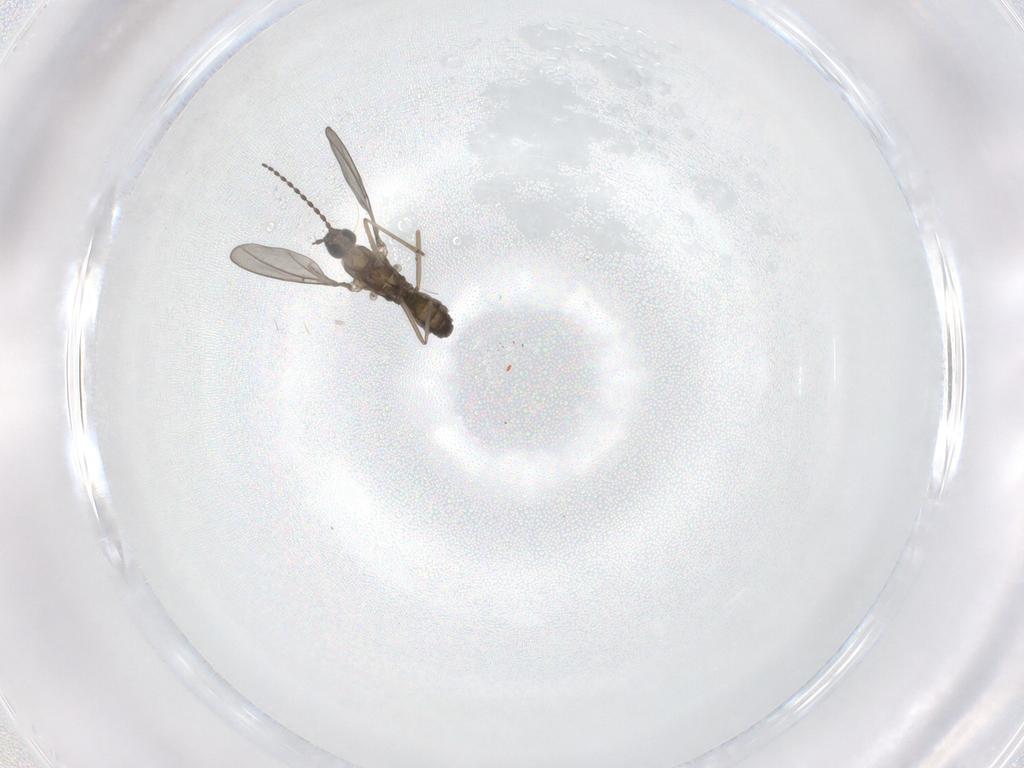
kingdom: Animalia
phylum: Arthropoda
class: Insecta
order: Diptera
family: Cecidomyiidae
